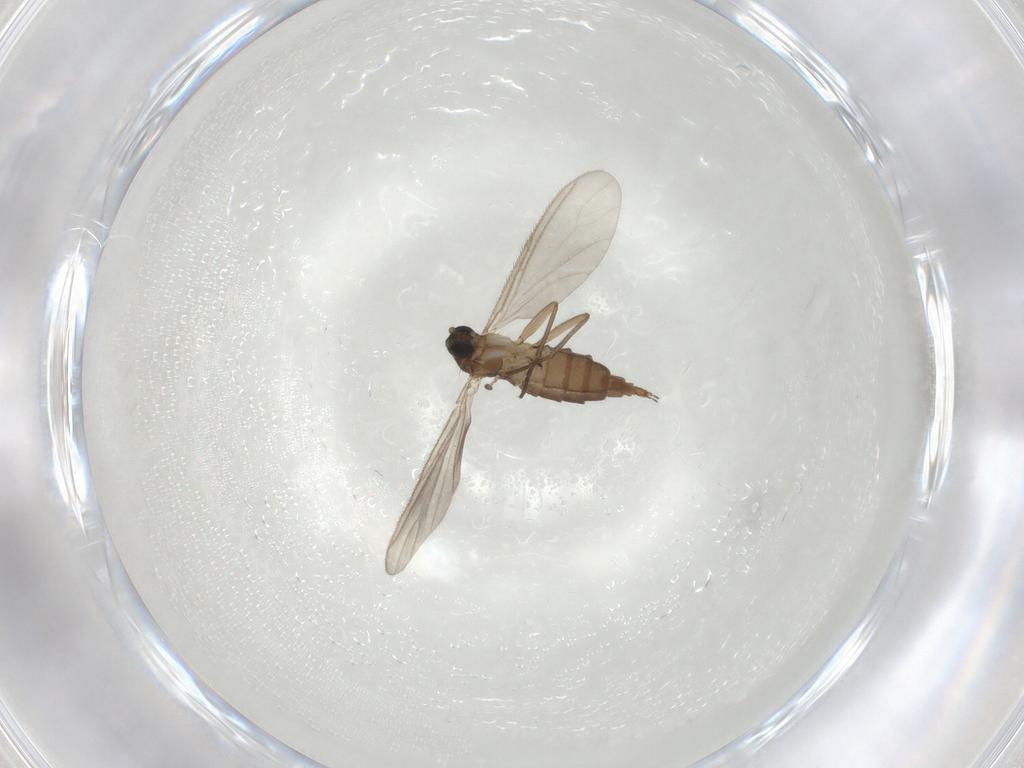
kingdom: Animalia
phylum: Arthropoda
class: Insecta
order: Diptera
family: Sciaridae
